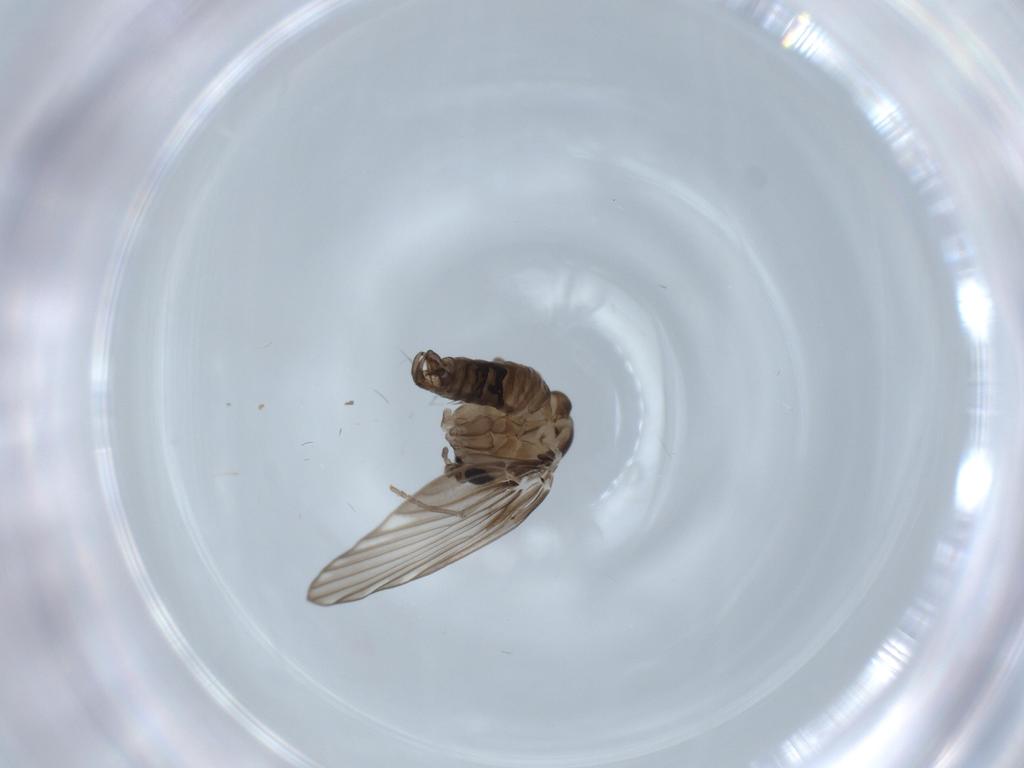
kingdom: Animalia
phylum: Arthropoda
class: Insecta
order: Diptera
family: Psychodidae
